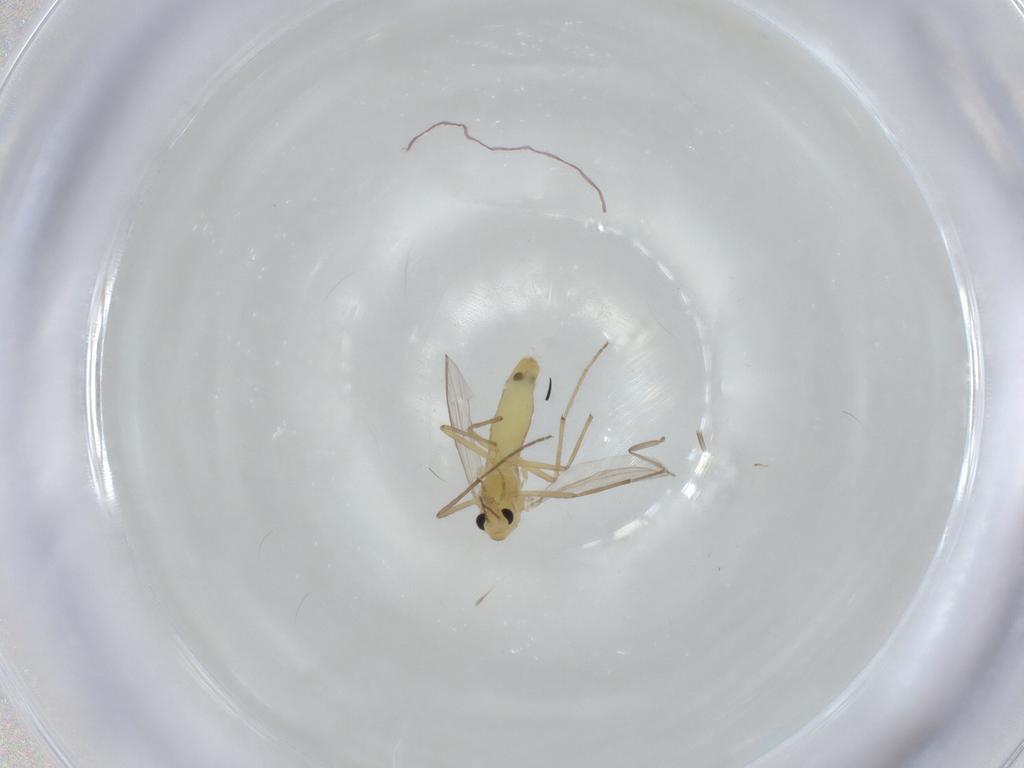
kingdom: Animalia
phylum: Arthropoda
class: Insecta
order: Diptera
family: Chironomidae
